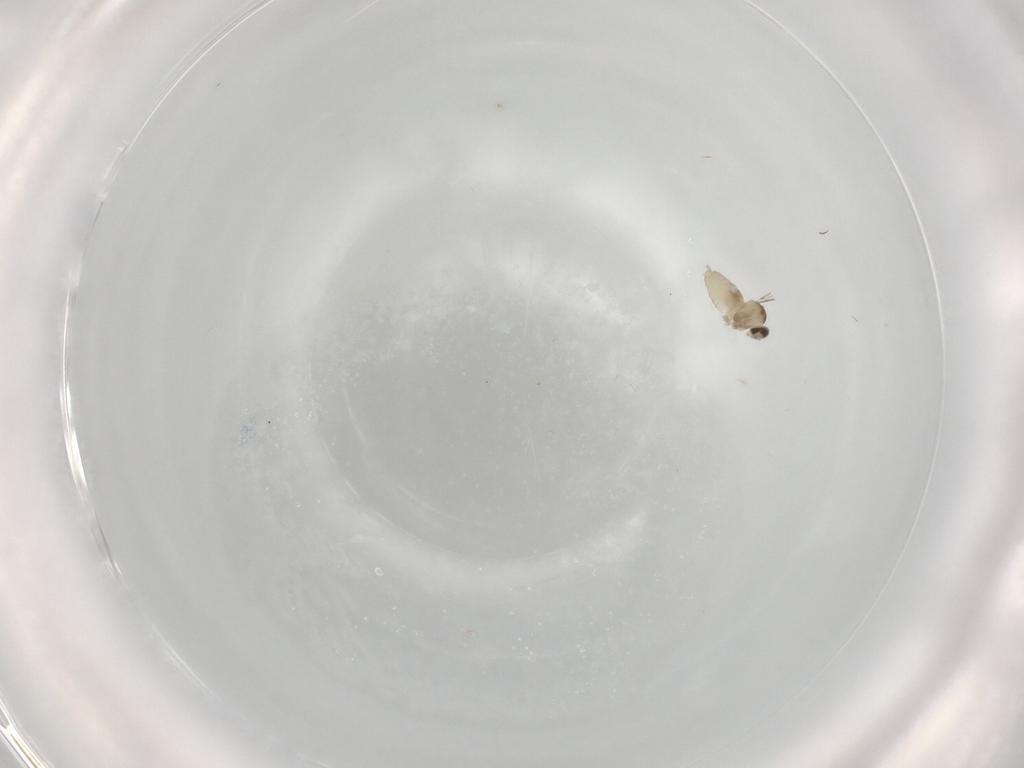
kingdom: Animalia
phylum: Arthropoda
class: Insecta
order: Diptera
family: Cecidomyiidae
